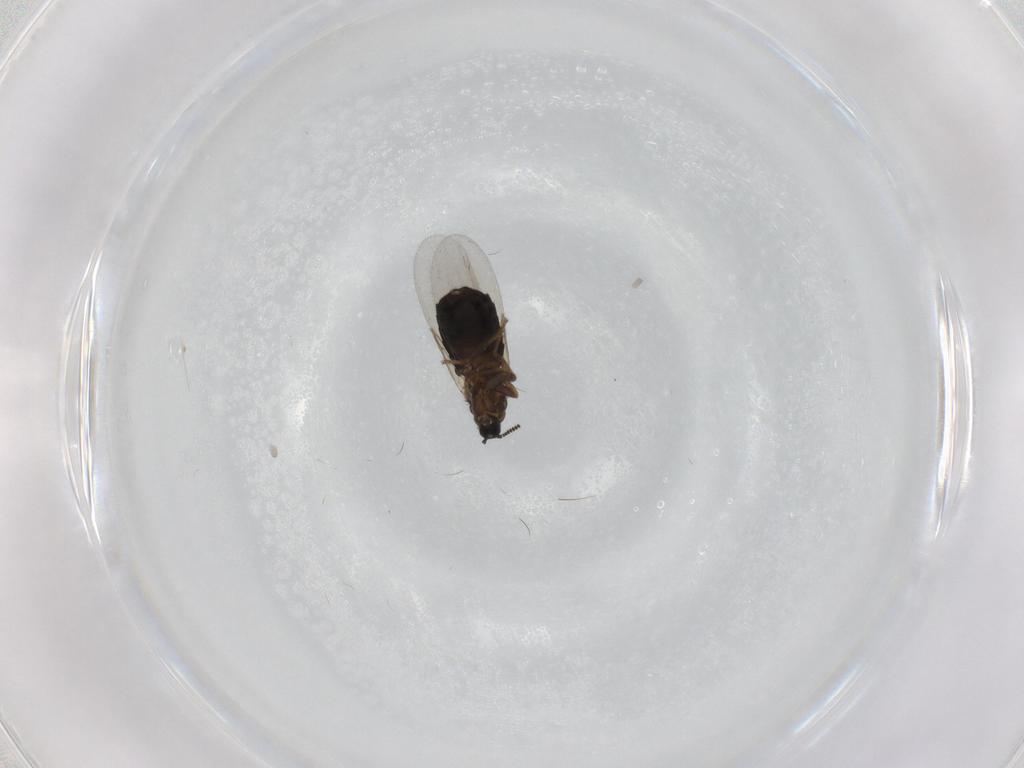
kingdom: Animalia
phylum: Arthropoda
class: Insecta
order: Diptera
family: Scatopsidae
